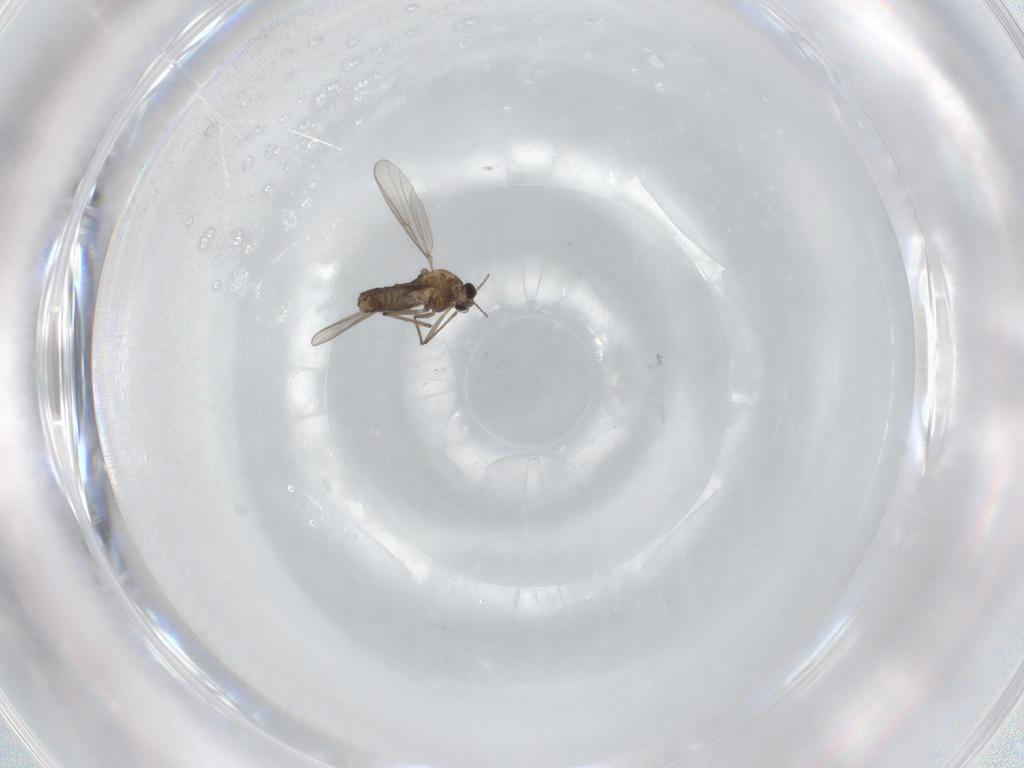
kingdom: Animalia
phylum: Arthropoda
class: Insecta
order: Diptera
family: Chironomidae
